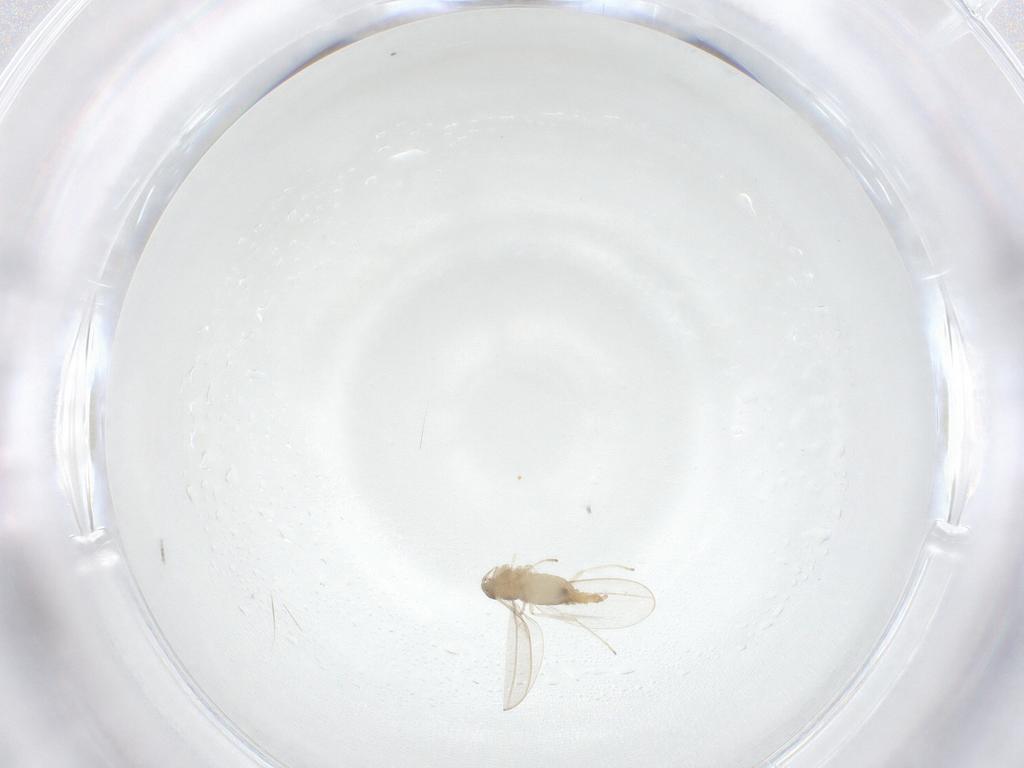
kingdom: Animalia
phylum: Arthropoda
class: Insecta
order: Diptera
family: Cecidomyiidae
